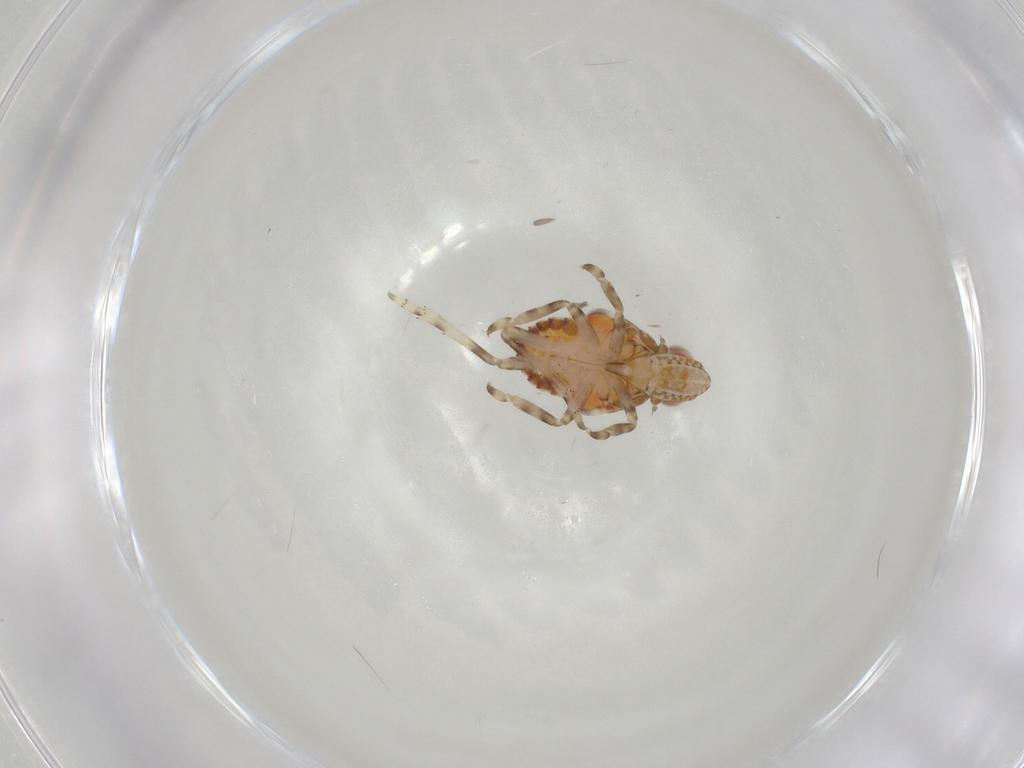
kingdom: Animalia
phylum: Arthropoda
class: Insecta
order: Hemiptera
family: Tropiduchidae
